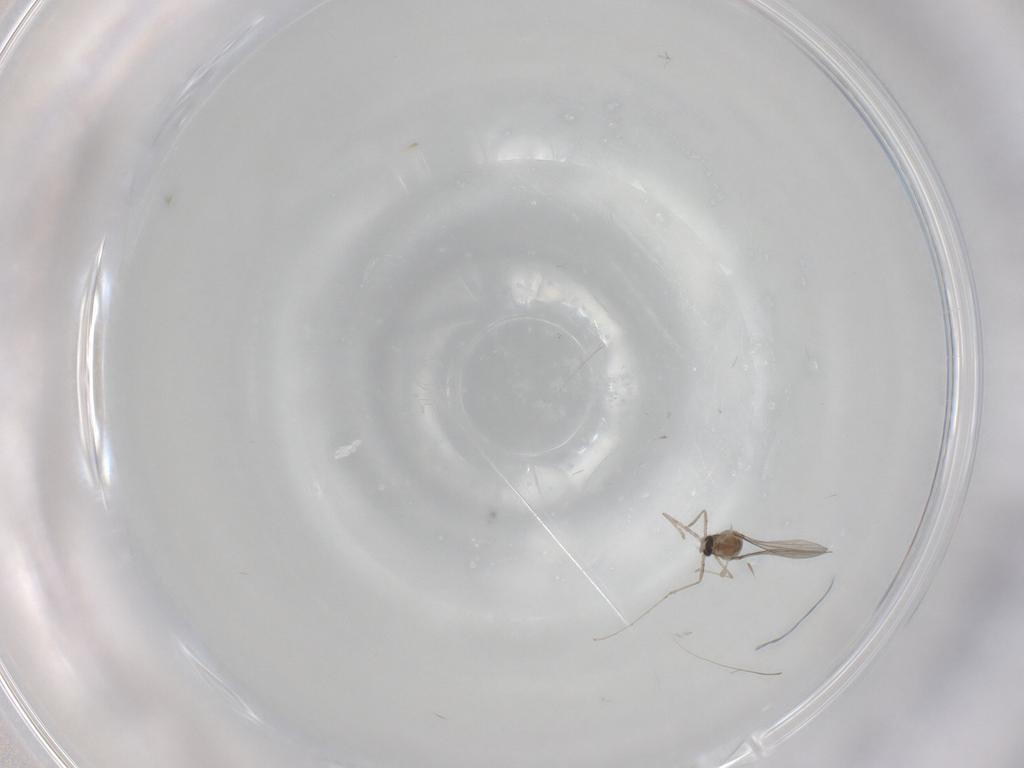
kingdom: Animalia
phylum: Arthropoda
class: Insecta
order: Diptera
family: Cecidomyiidae
